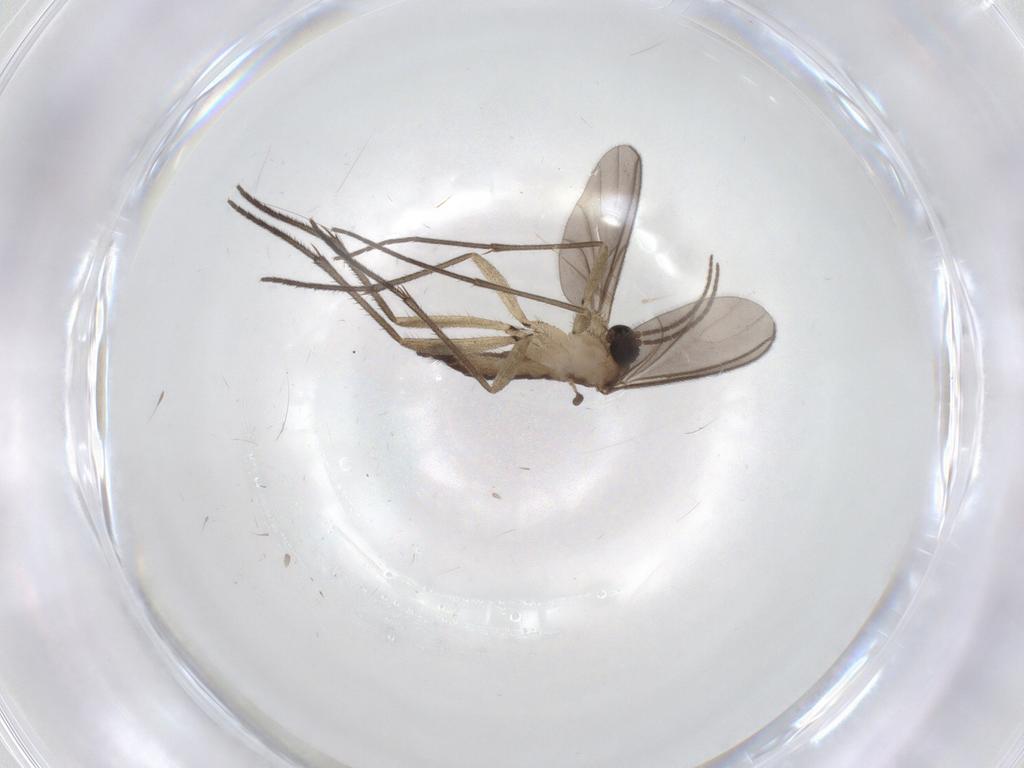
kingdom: Animalia
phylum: Arthropoda
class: Insecta
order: Diptera
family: Sciaridae
